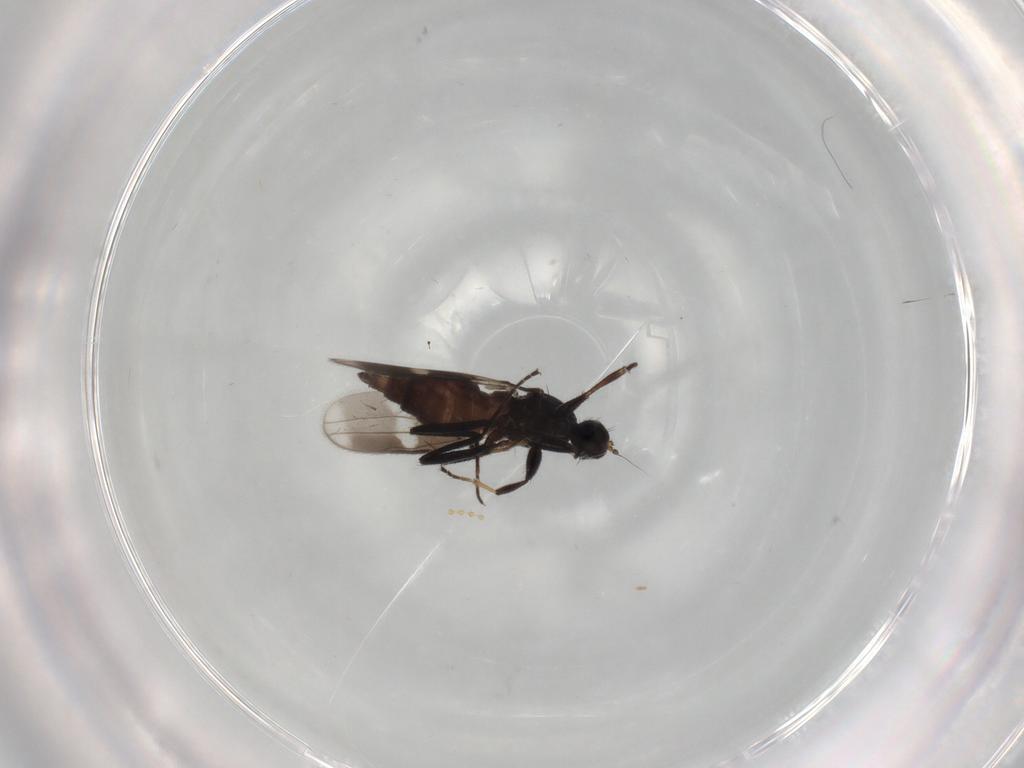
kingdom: Animalia
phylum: Arthropoda
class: Insecta
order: Diptera
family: Hybotidae
